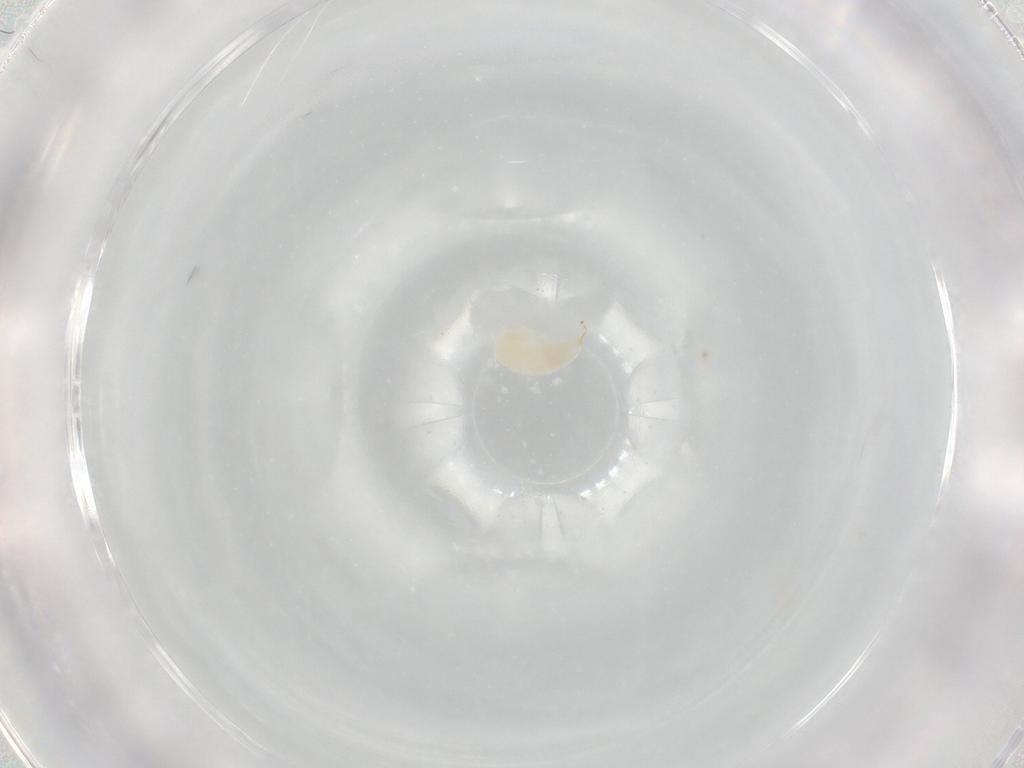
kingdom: Animalia
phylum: Arthropoda
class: Insecta
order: Hymenoptera
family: Ichneumonidae
